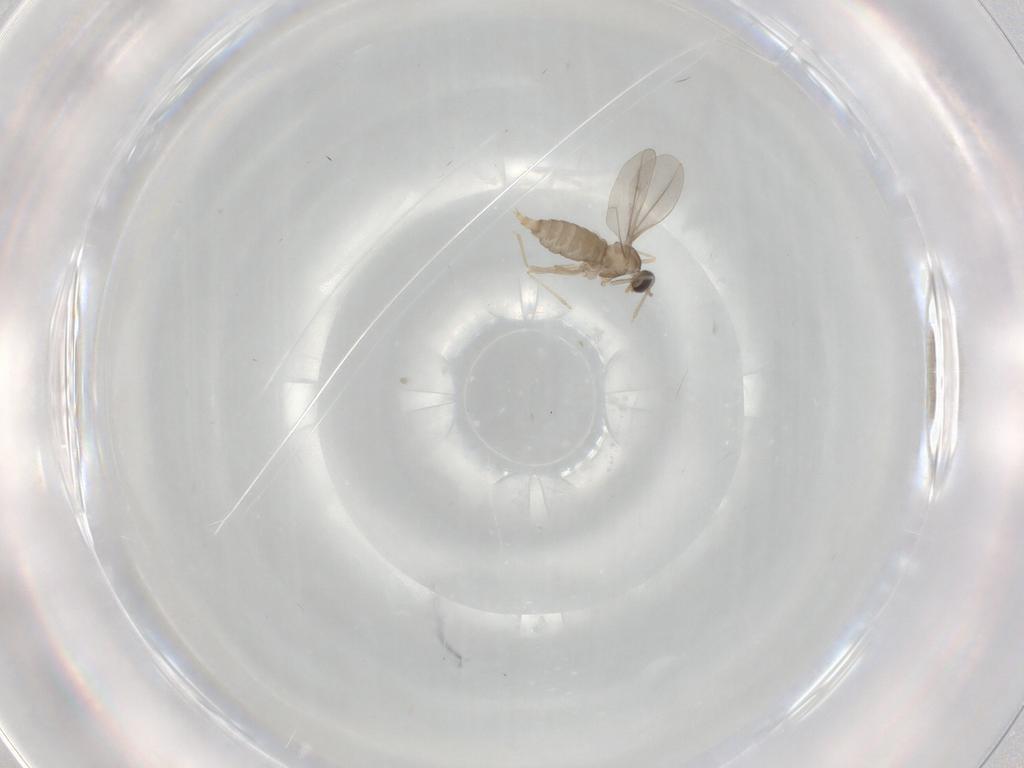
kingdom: Animalia
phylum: Arthropoda
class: Insecta
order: Diptera
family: Cecidomyiidae
